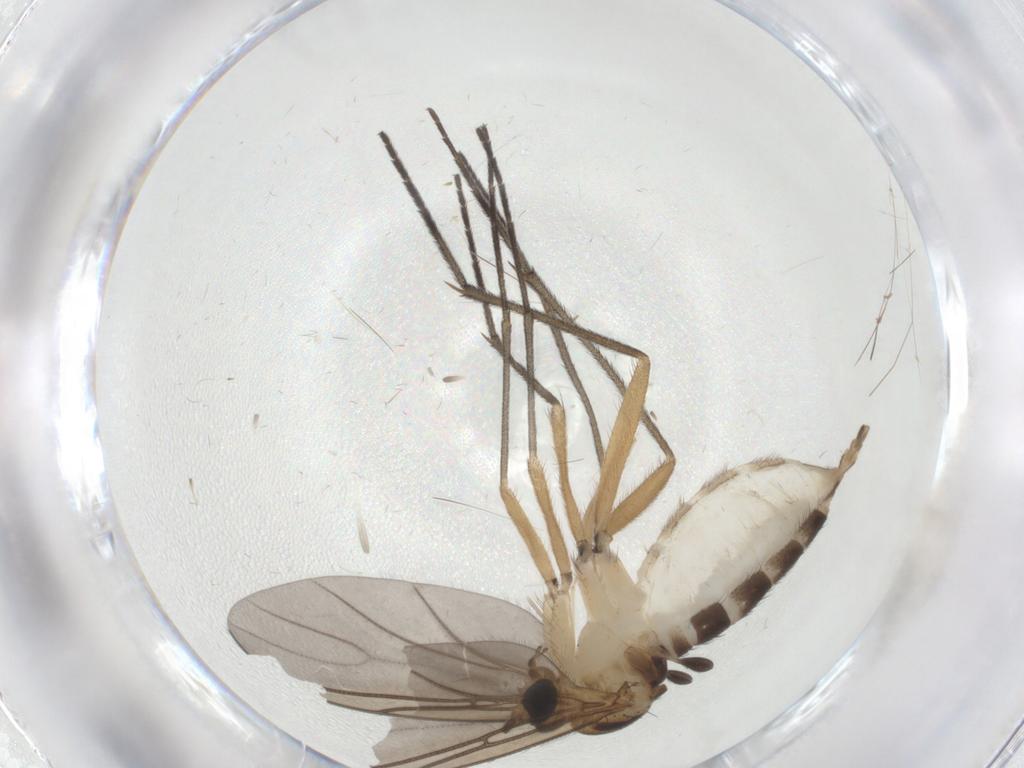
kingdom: Animalia
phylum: Arthropoda
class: Insecta
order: Diptera
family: Sciaridae
